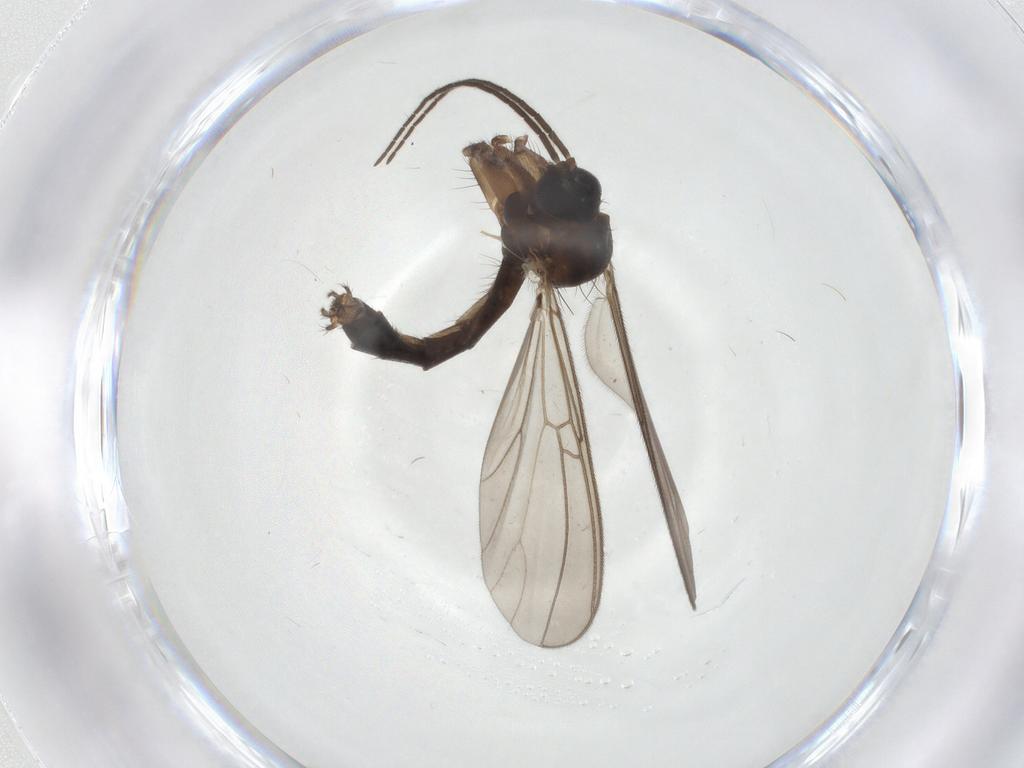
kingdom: Animalia
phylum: Arthropoda
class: Insecta
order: Diptera
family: Mycetophilidae
